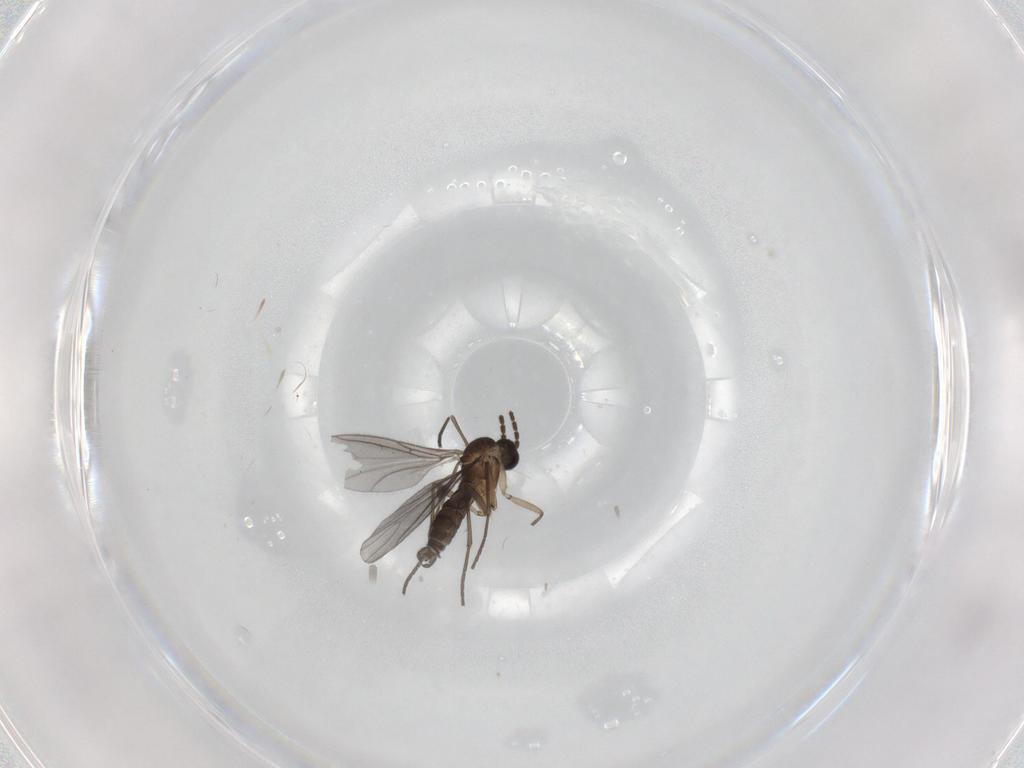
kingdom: Animalia
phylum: Arthropoda
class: Insecta
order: Diptera
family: Sciaridae
